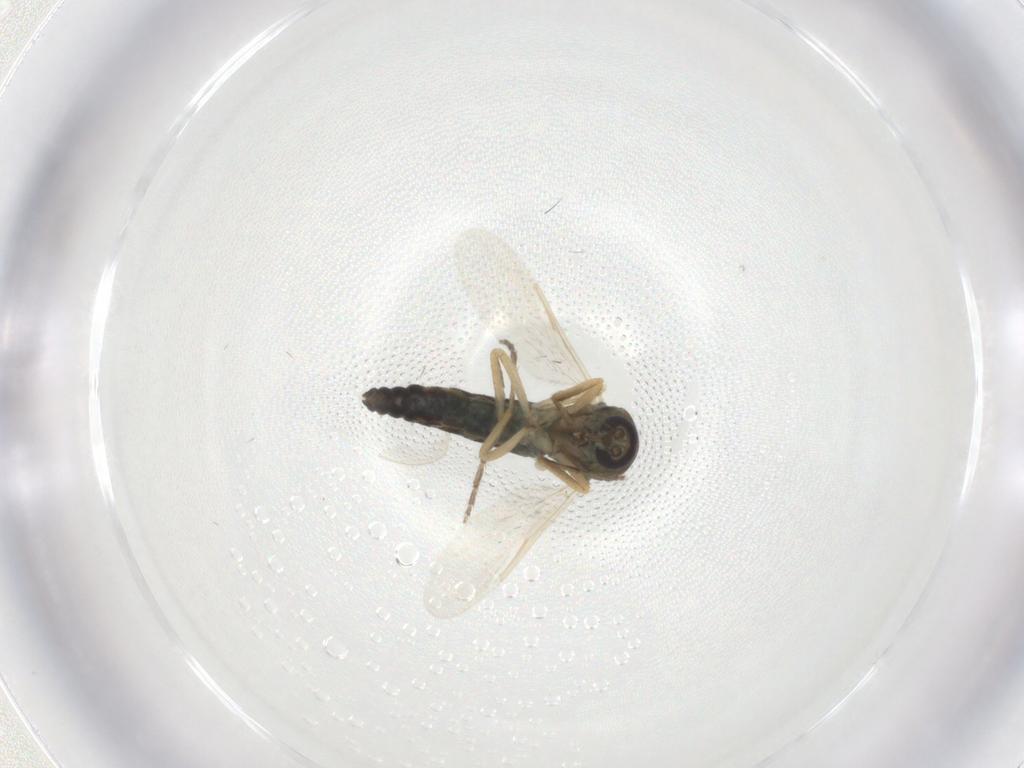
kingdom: Animalia
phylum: Arthropoda
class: Insecta
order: Diptera
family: Ceratopogonidae
